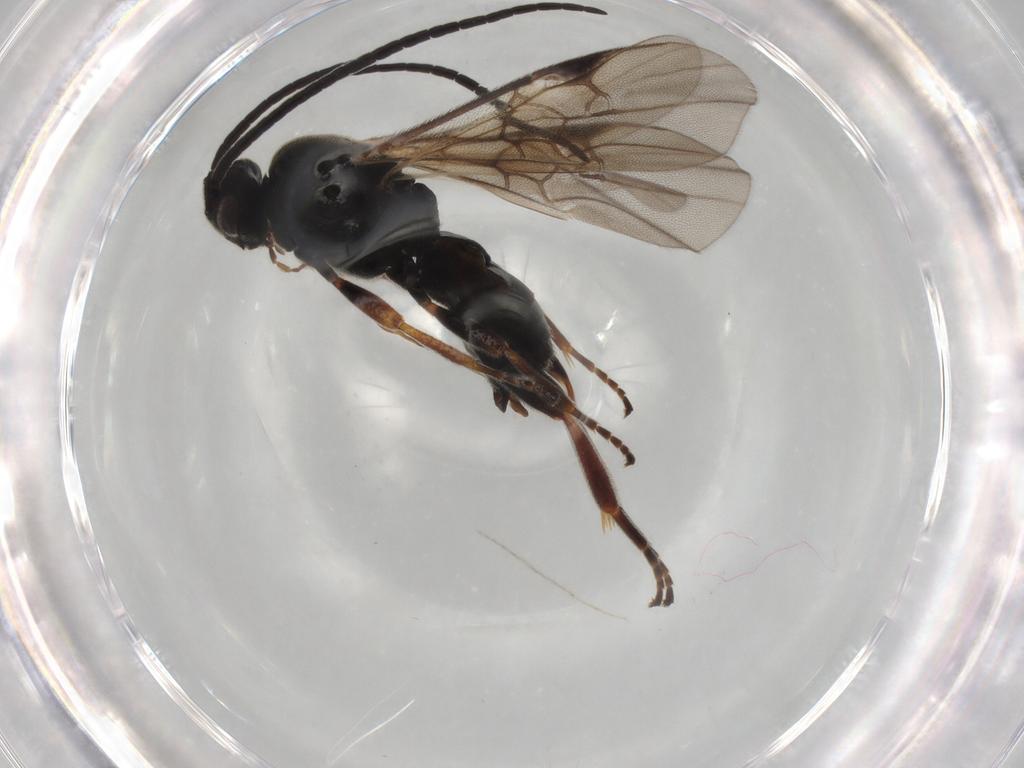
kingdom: Animalia
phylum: Arthropoda
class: Insecta
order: Hymenoptera
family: Braconidae
